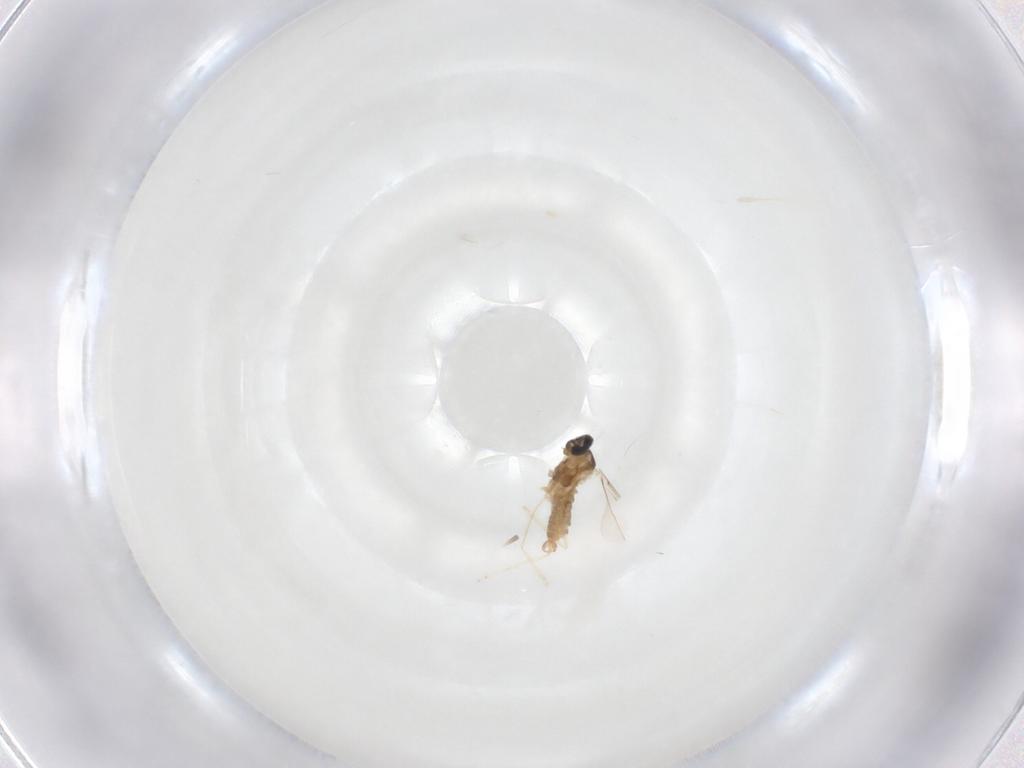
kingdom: Animalia
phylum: Arthropoda
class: Insecta
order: Diptera
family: Cecidomyiidae
